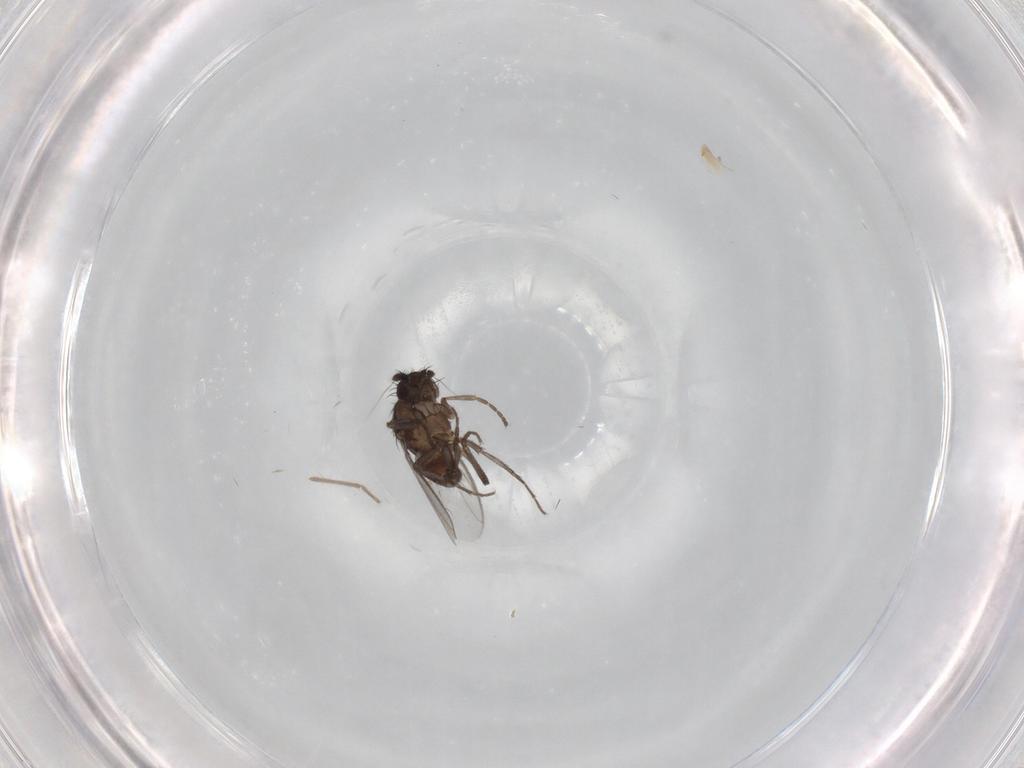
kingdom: Animalia
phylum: Arthropoda
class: Insecta
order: Diptera
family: Sphaeroceridae
